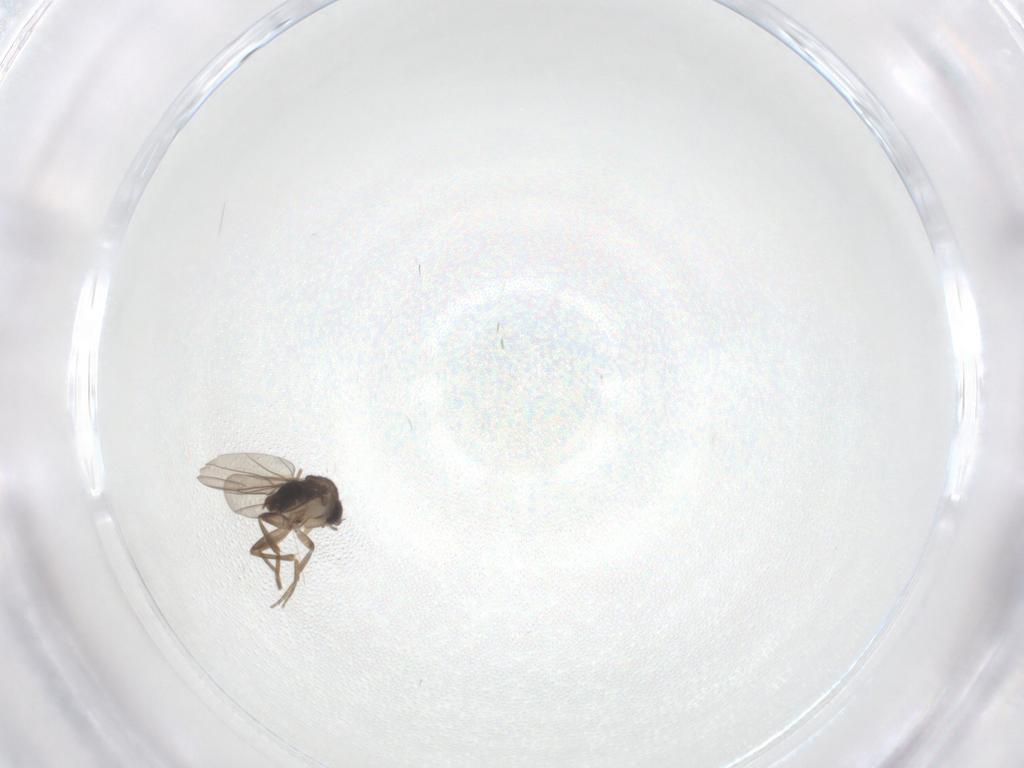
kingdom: Animalia
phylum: Arthropoda
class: Insecta
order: Diptera
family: Phoridae
